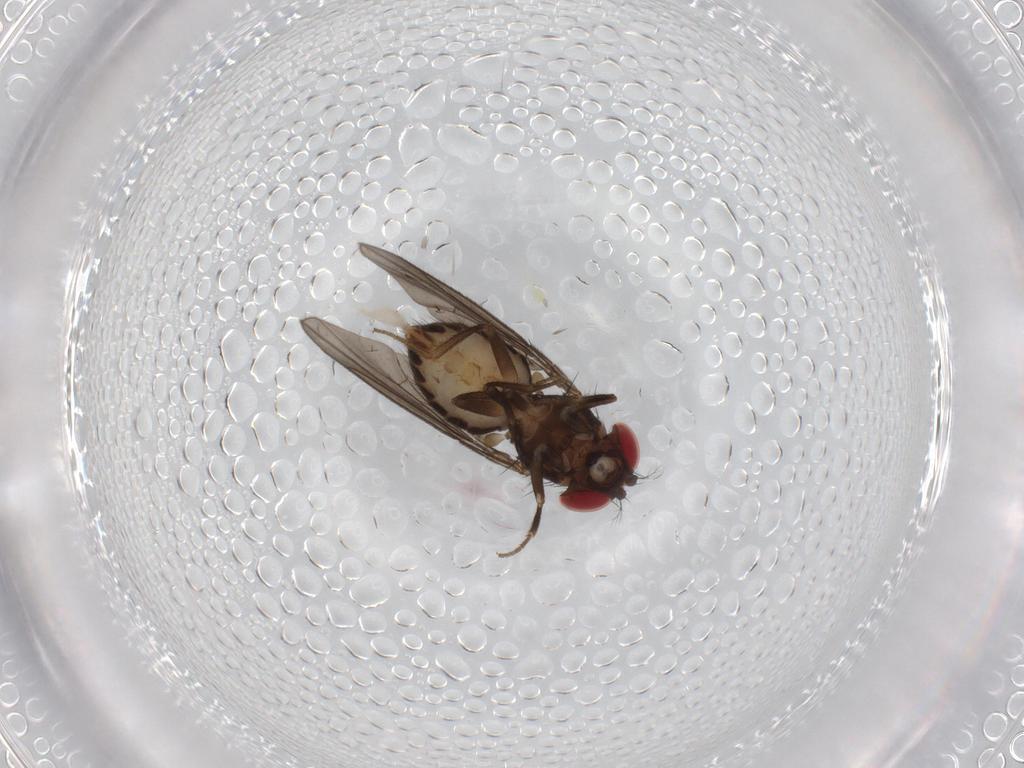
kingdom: Animalia
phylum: Arthropoda
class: Insecta
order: Diptera
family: Drosophilidae
